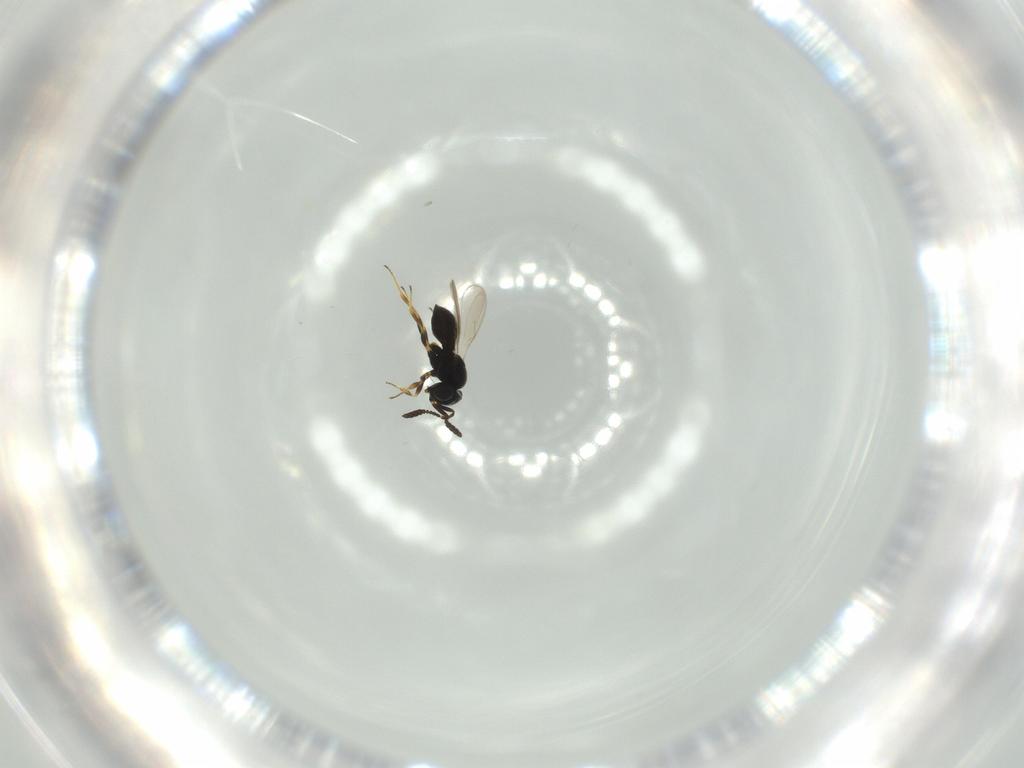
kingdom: Animalia
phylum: Arthropoda
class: Insecta
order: Hymenoptera
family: Scelionidae
